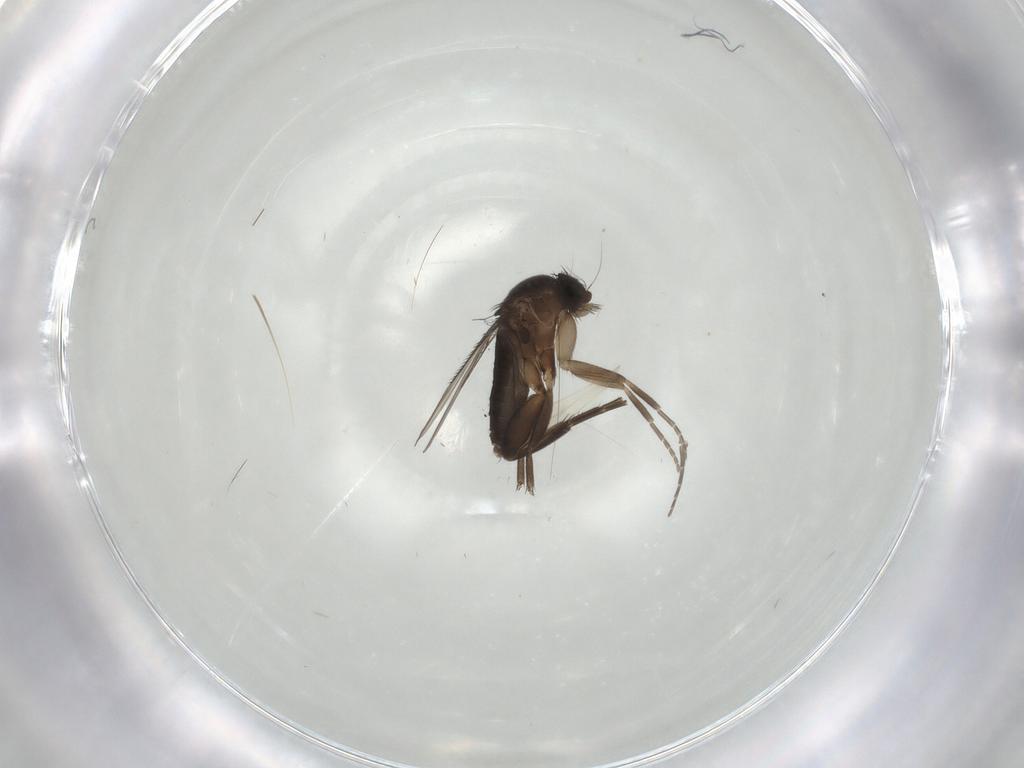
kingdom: Animalia
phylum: Arthropoda
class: Insecta
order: Diptera
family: Phoridae
